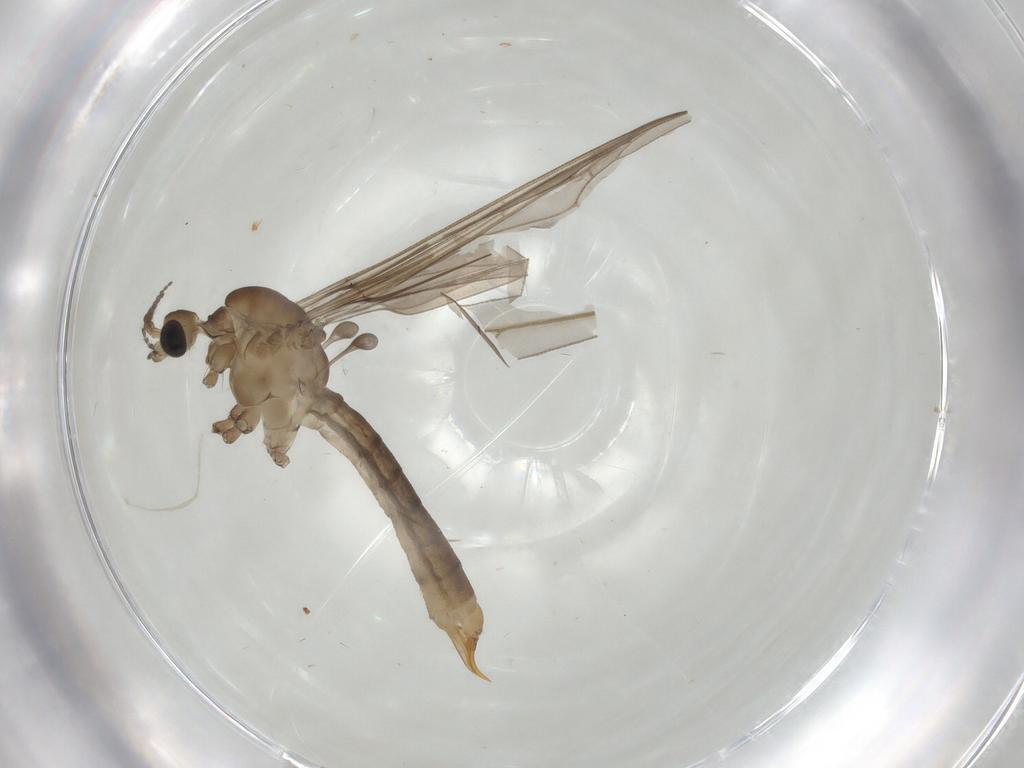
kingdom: Animalia
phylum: Arthropoda
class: Insecta
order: Diptera
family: Limoniidae
